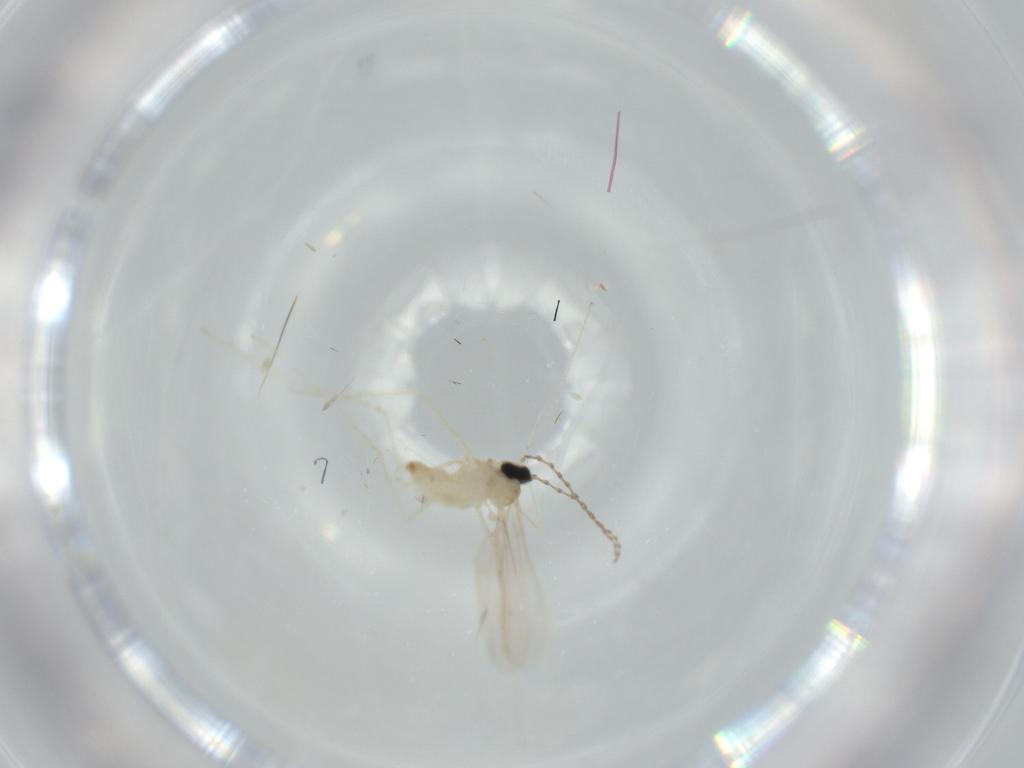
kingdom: Animalia
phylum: Arthropoda
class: Insecta
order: Diptera
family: Cecidomyiidae
